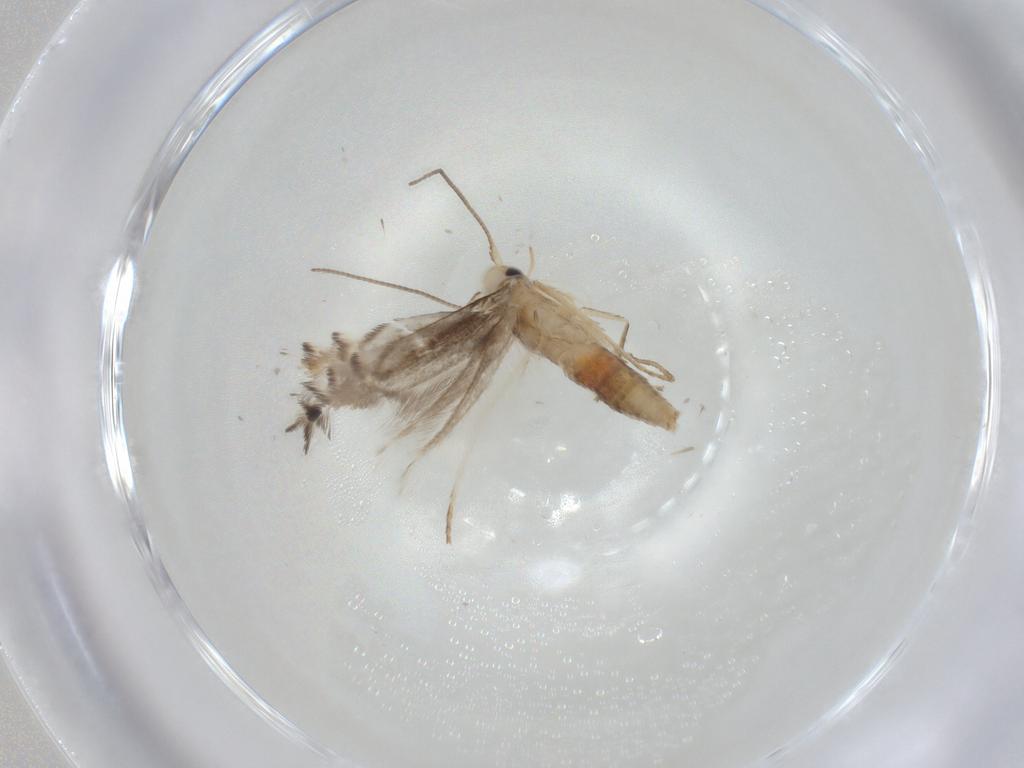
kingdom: Animalia
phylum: Arthropoda
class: Insecta
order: Lepidoptera
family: Gracillariidae
